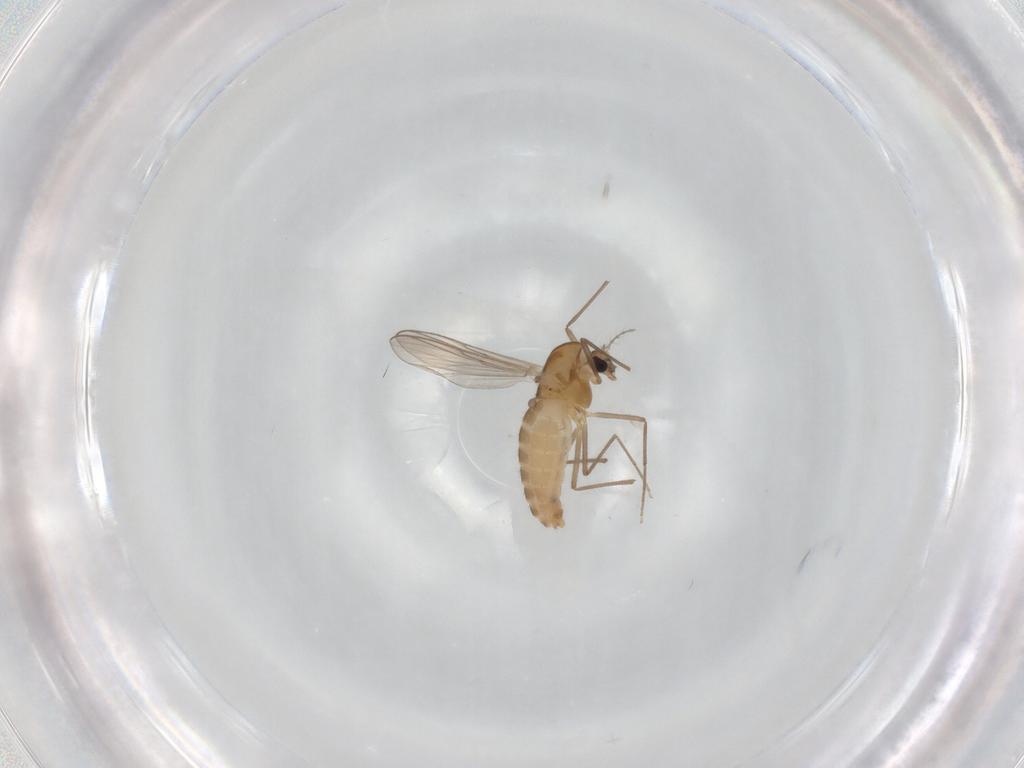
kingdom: Animalia
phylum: Arthropoda
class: Insecta
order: Diptera
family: Chironomidae
